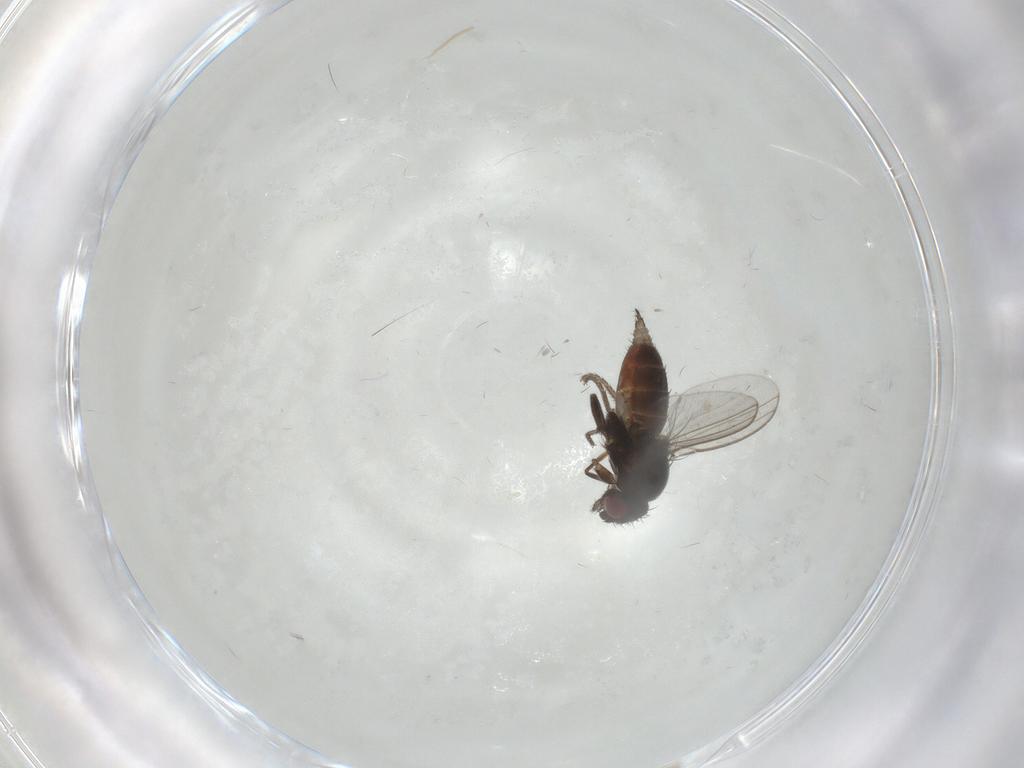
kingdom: Animalia
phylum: Arthropoda
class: Insecta
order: Diptera
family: Milichiidae
